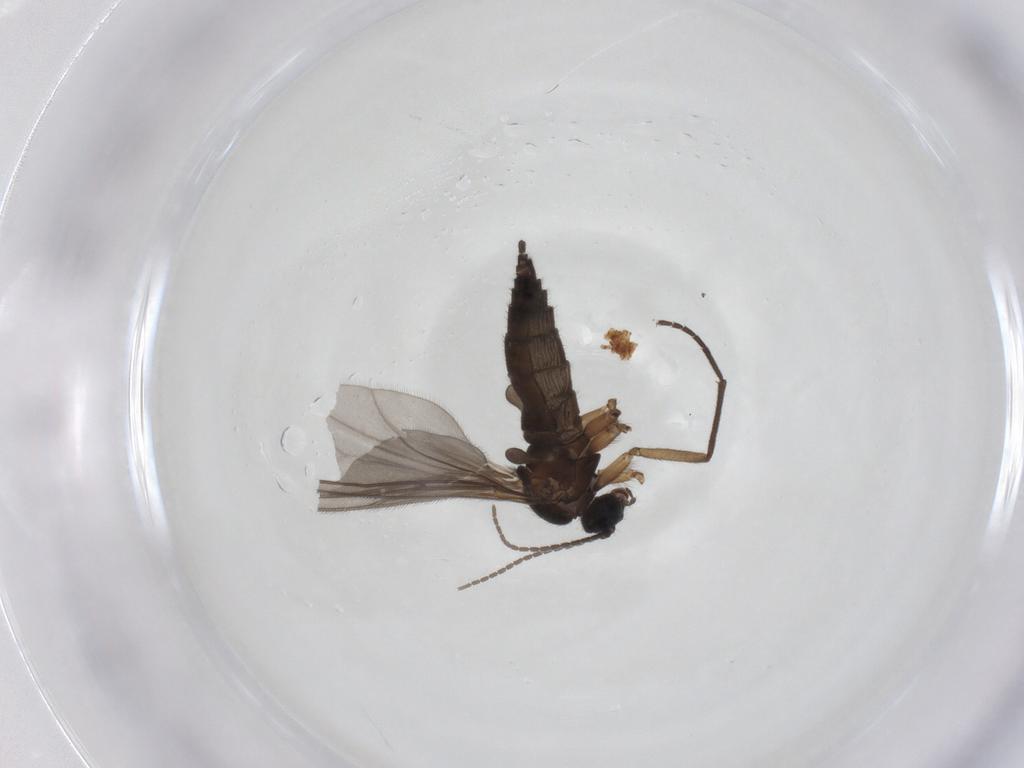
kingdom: Animalia
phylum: Arthropoda
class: Insecta
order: Diptera
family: Sciaridae
